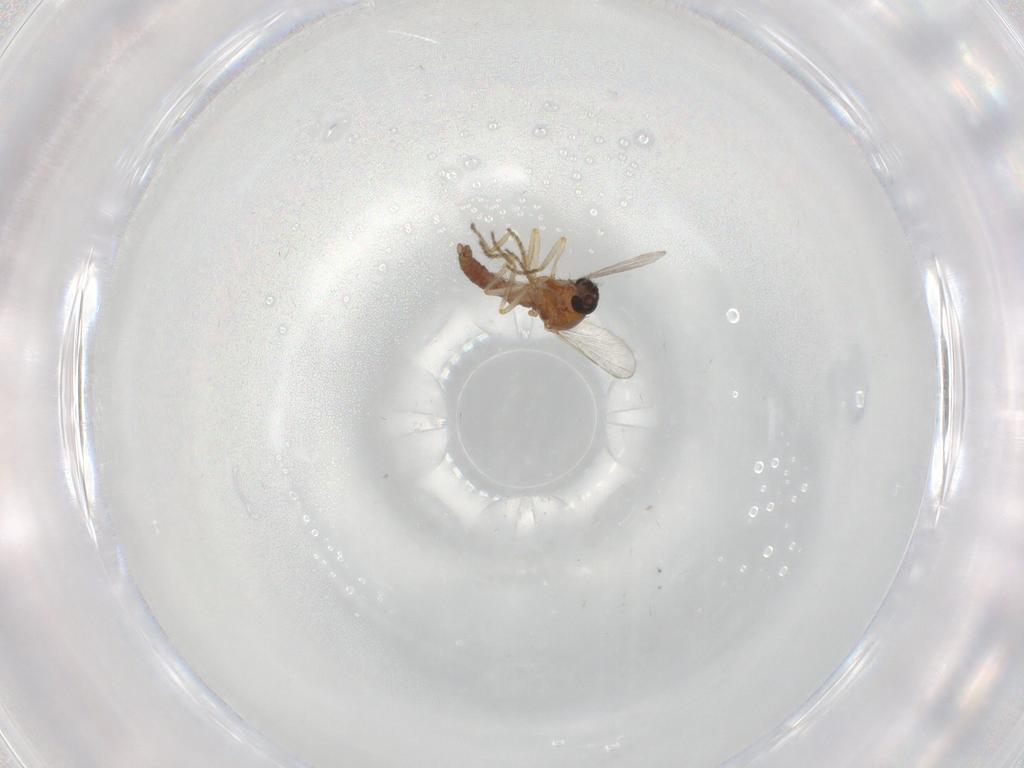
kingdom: Animalia
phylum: Arthropoda
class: Insecta
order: Diptera
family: Ceratopogonidae
